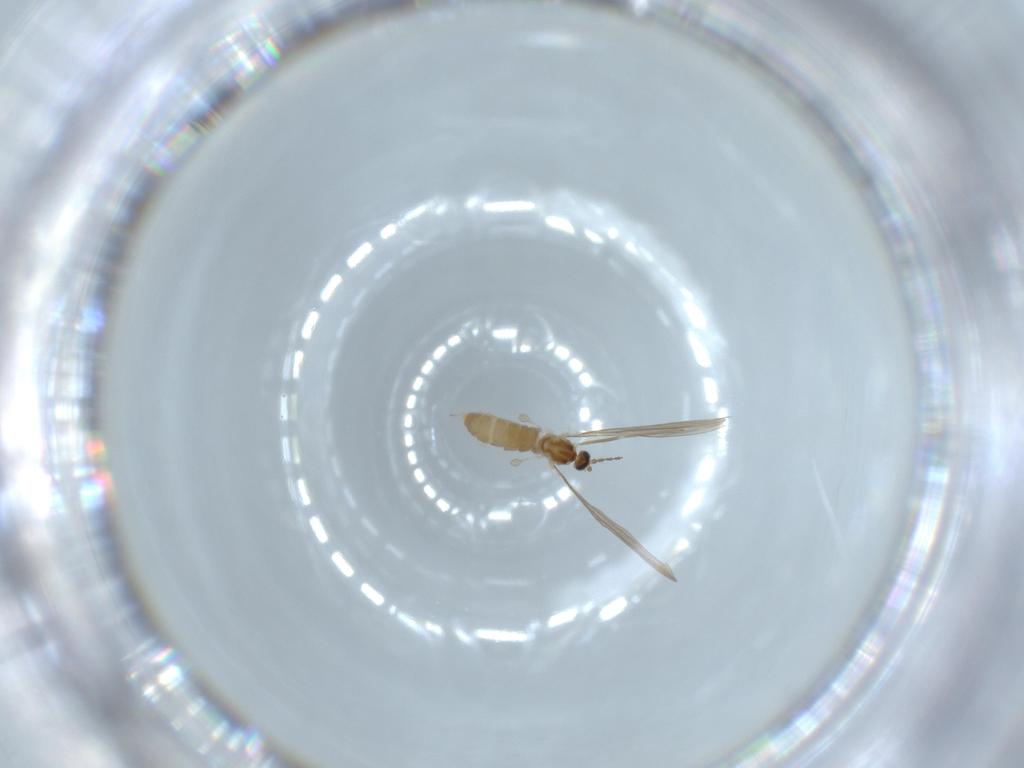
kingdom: Animalia
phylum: Arthropoda
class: Insecta
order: Diptera
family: Cecidomyiidae
